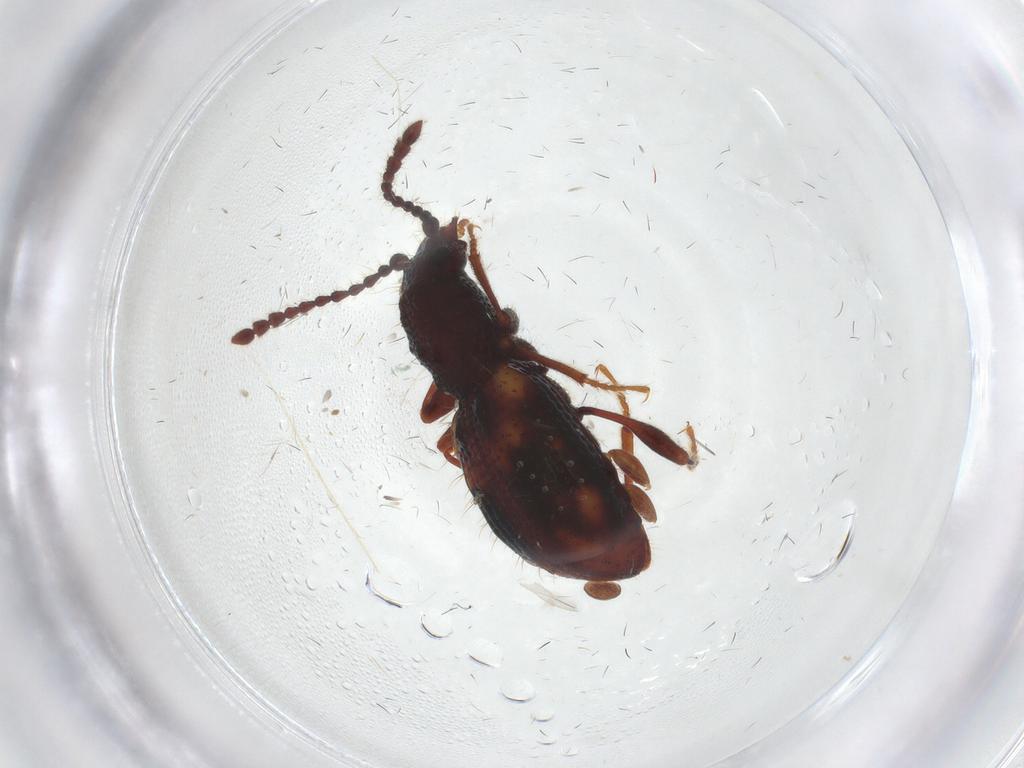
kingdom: Animalia
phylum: Arthropoda
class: Insecta
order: Coleoptera
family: Ptinidae
